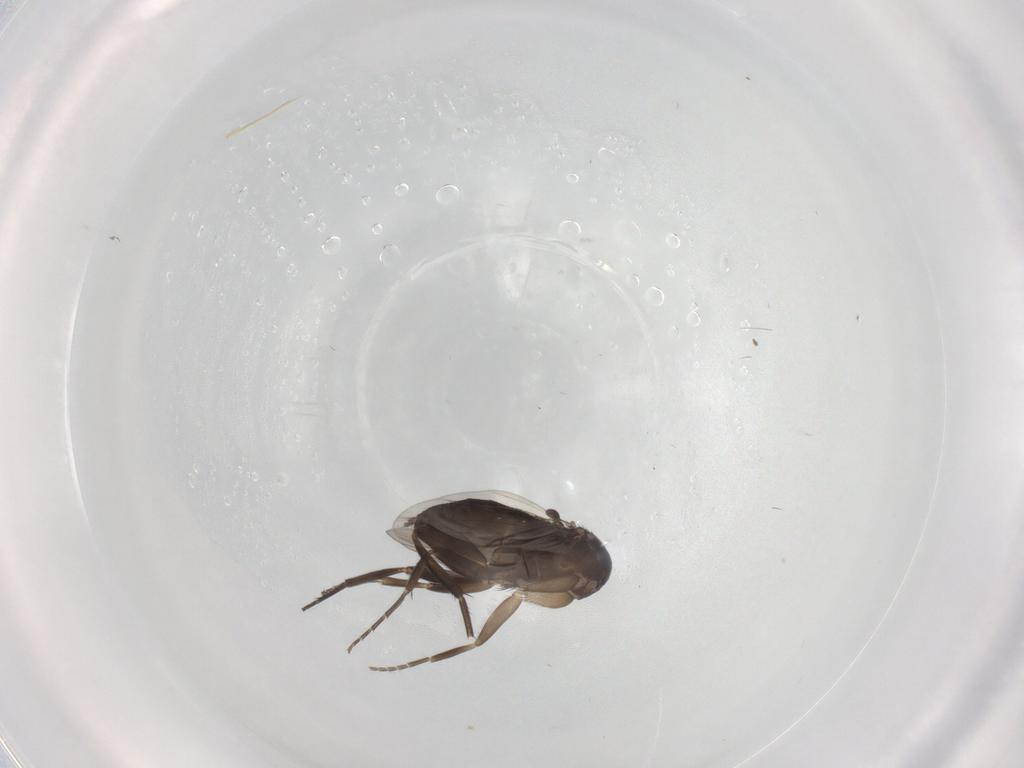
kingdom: Animalia
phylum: Arthropoda
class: Insecta
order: Diptera
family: Phoridae
